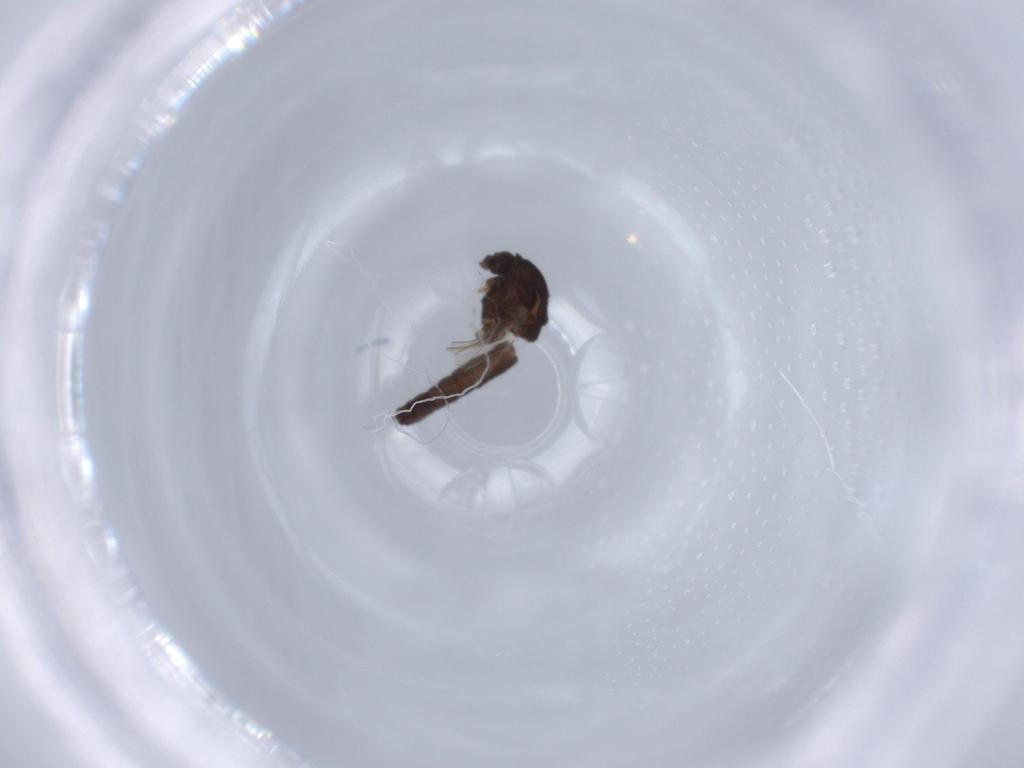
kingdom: Animalia
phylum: Arthropoda
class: Insecta
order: Diptera
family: Chironomidae
